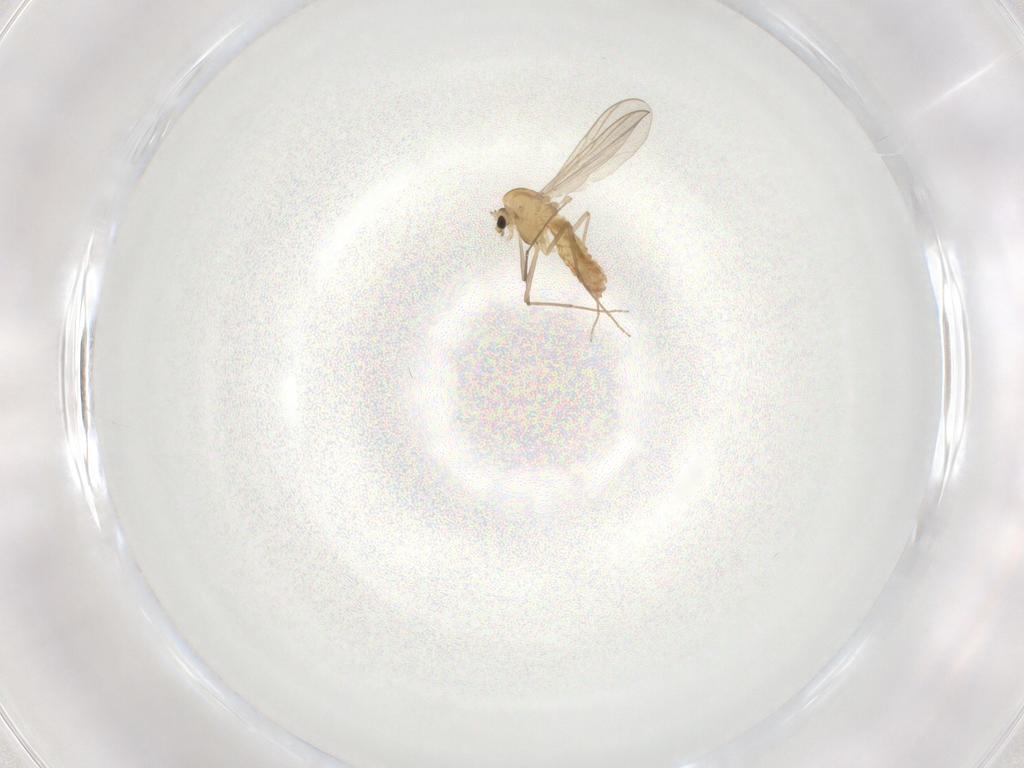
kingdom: Animalia
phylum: Arthropoda
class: Insecta
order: Diptera
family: Chironomidae
